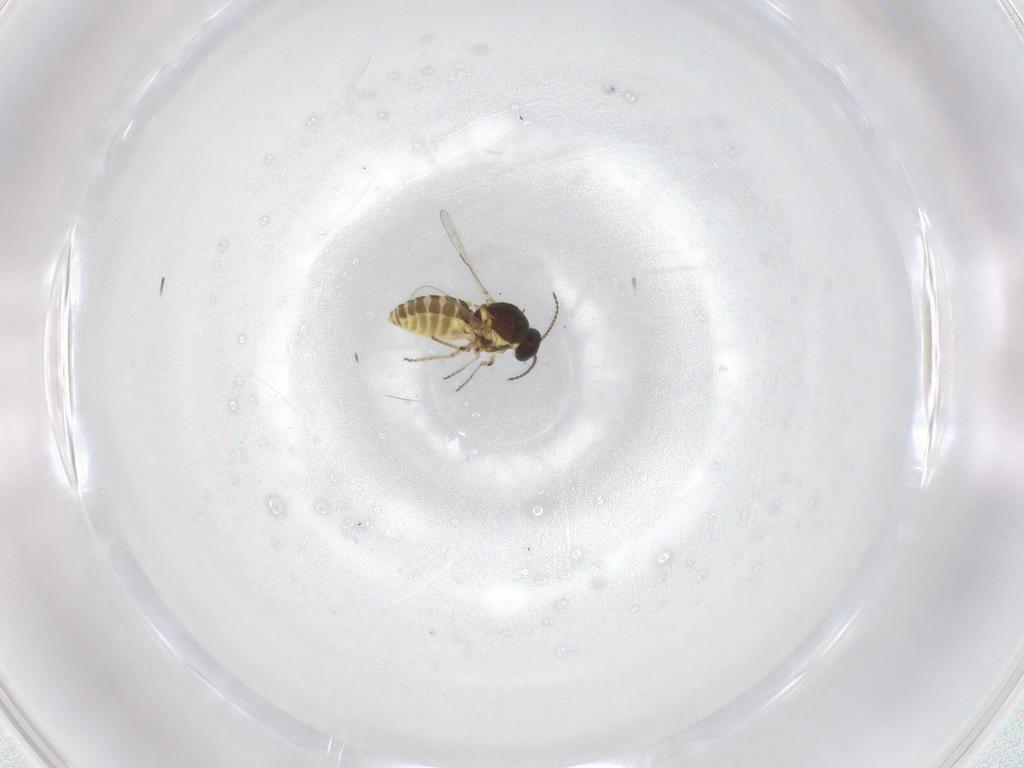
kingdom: Animalia
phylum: Arthropoda
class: Insecta
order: Diptera
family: Ceratopogonidae
